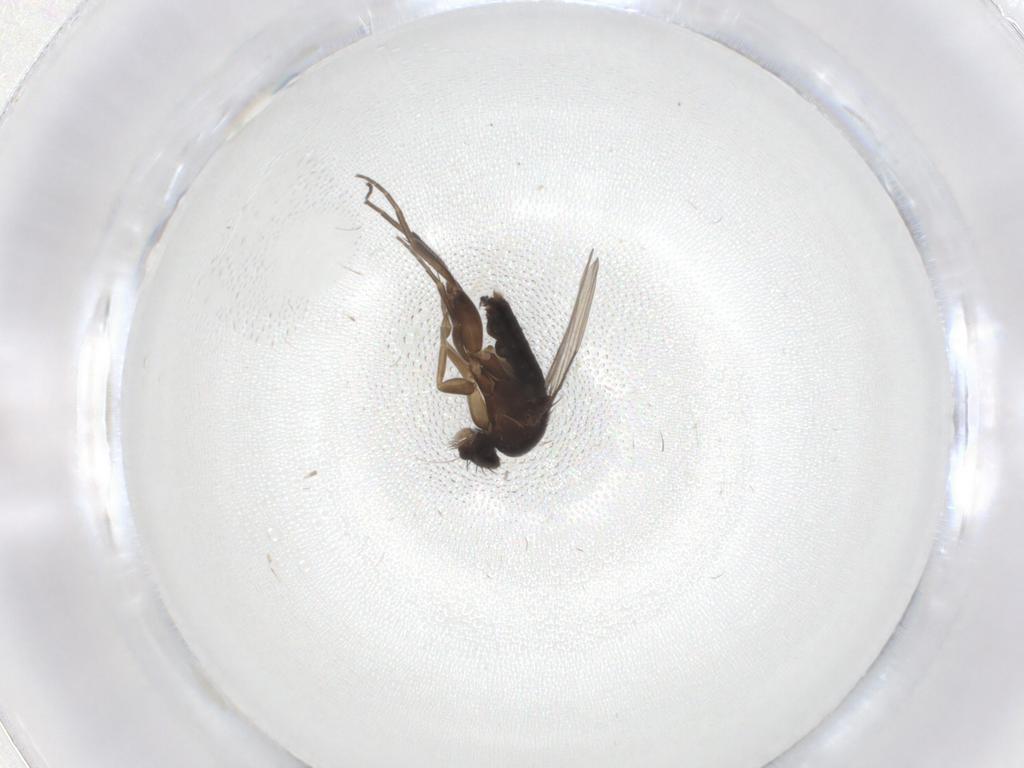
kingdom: Animalia
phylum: Arthropoda
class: Insecta
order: Diptera
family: Phoridae
